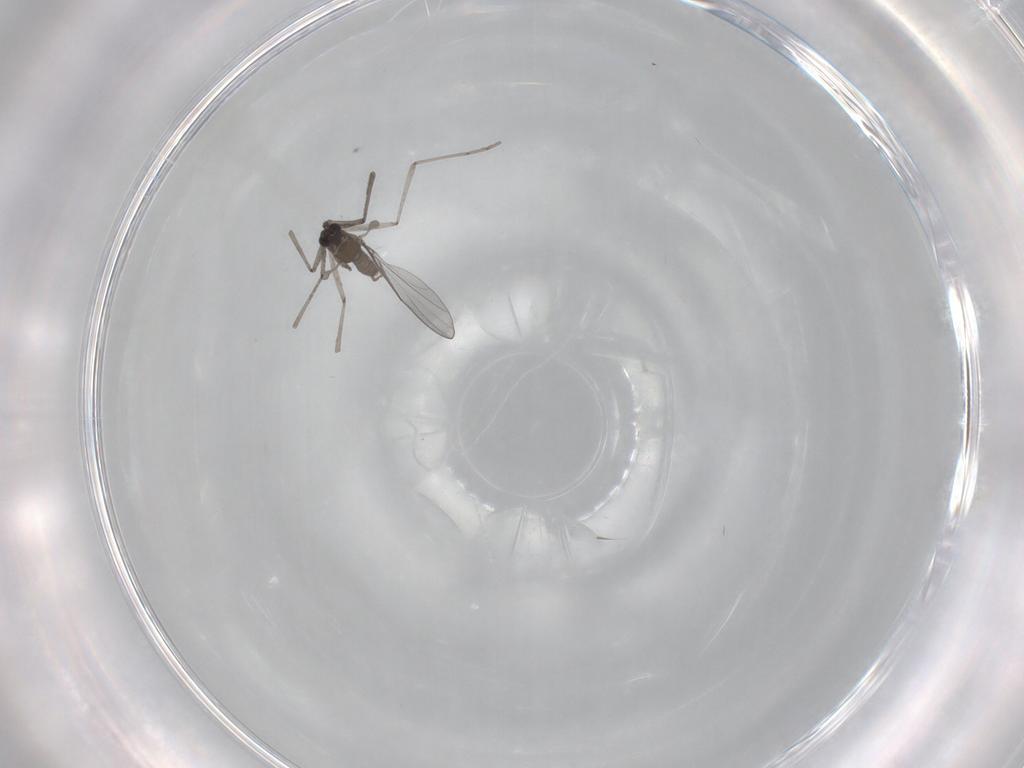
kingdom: Animalia
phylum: Arthropoda
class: Insecta
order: Diptera
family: Cecidomyiidae
